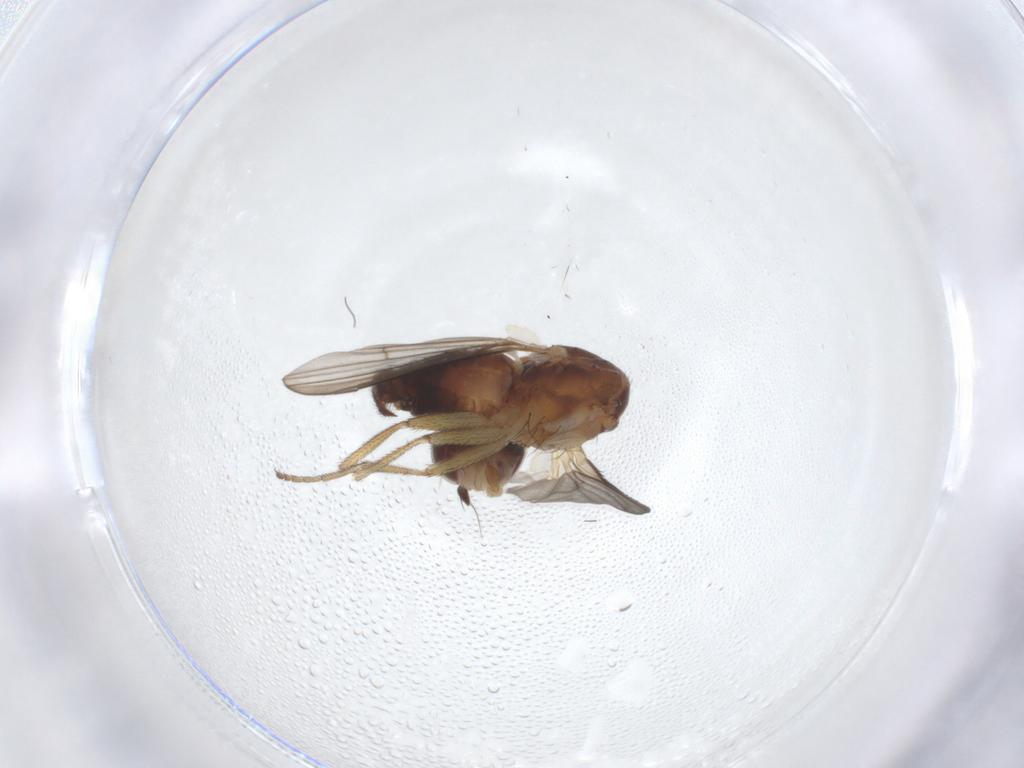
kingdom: Animalia
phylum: Arthropoda
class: Insecta
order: Diptera
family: Heleomyzidae
